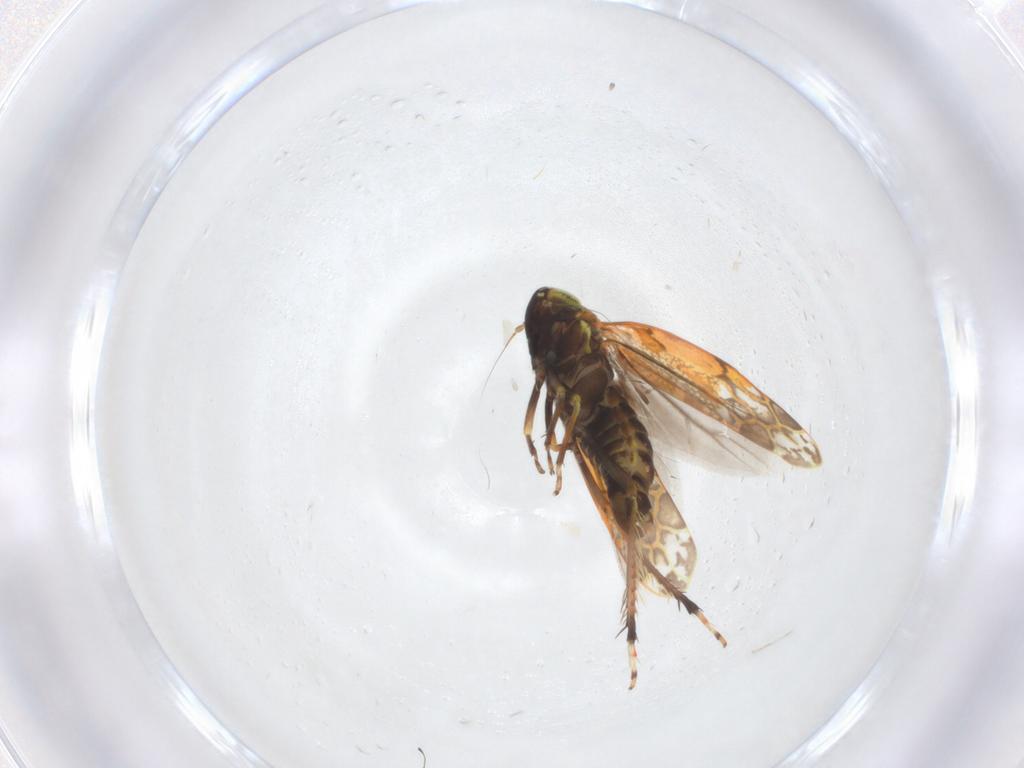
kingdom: Animalia
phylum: Arthropoda
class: Insecta
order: Hemiptera
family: Cicadellidae
